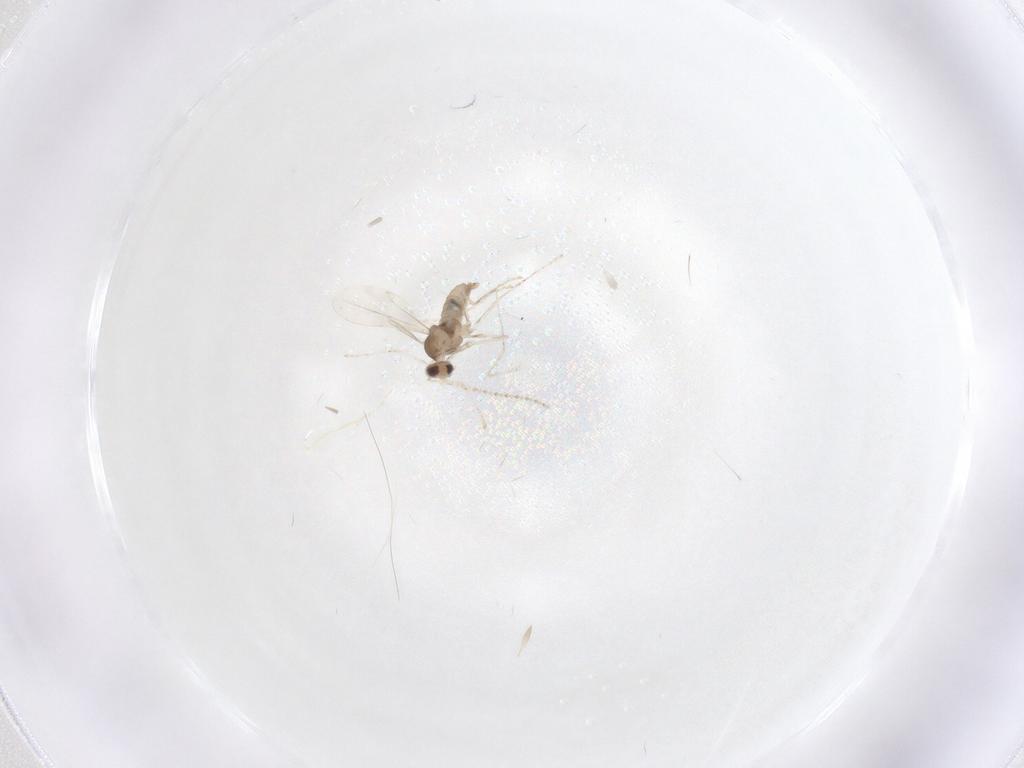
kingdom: Animalia
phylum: Arthropoda
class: Insecta
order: Diptera
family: Cecidomyiidae
